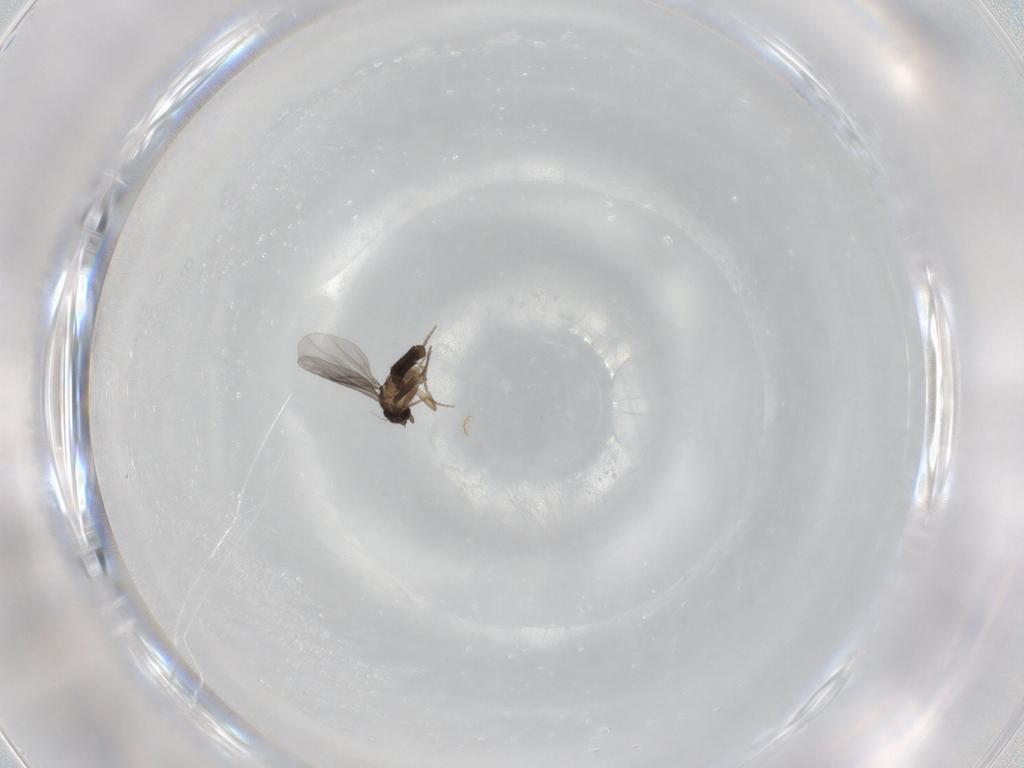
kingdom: Animalia
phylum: Arthropoda
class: Insecta
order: Diptera
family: Tabanidae
